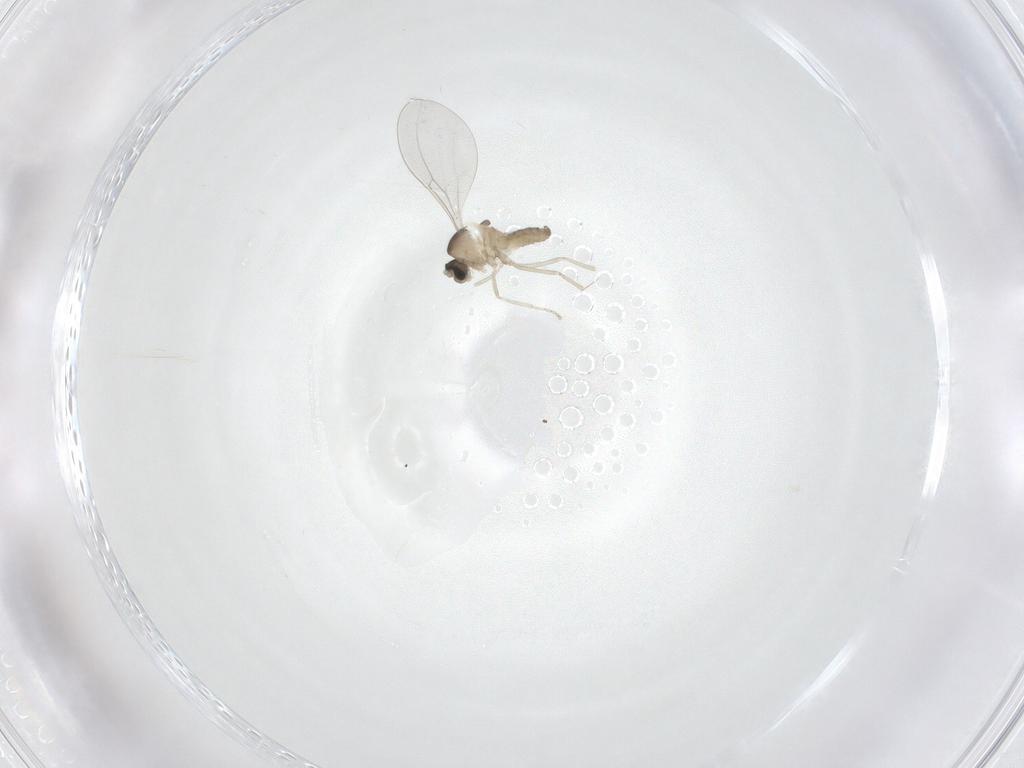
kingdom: Animalia
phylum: Arthropoda
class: Insecta
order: Diptera
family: Cecidomyiidae
